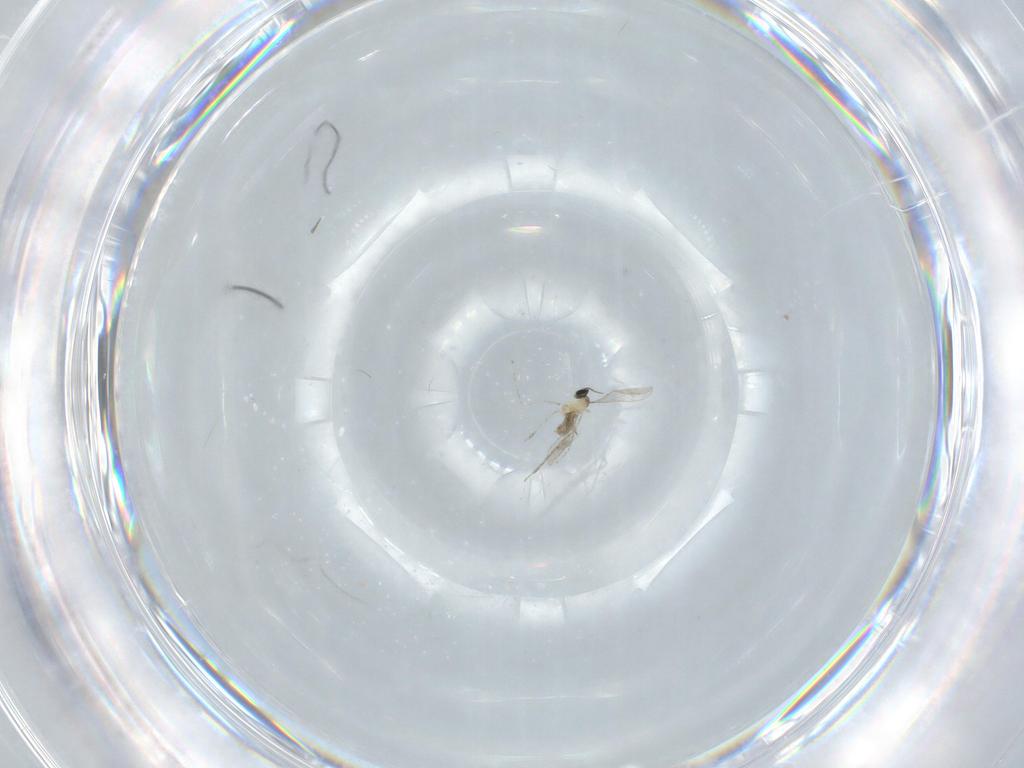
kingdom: Animalia
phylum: Arthropoda
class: Insecta
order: Diptera
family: Cecidomyiidae
